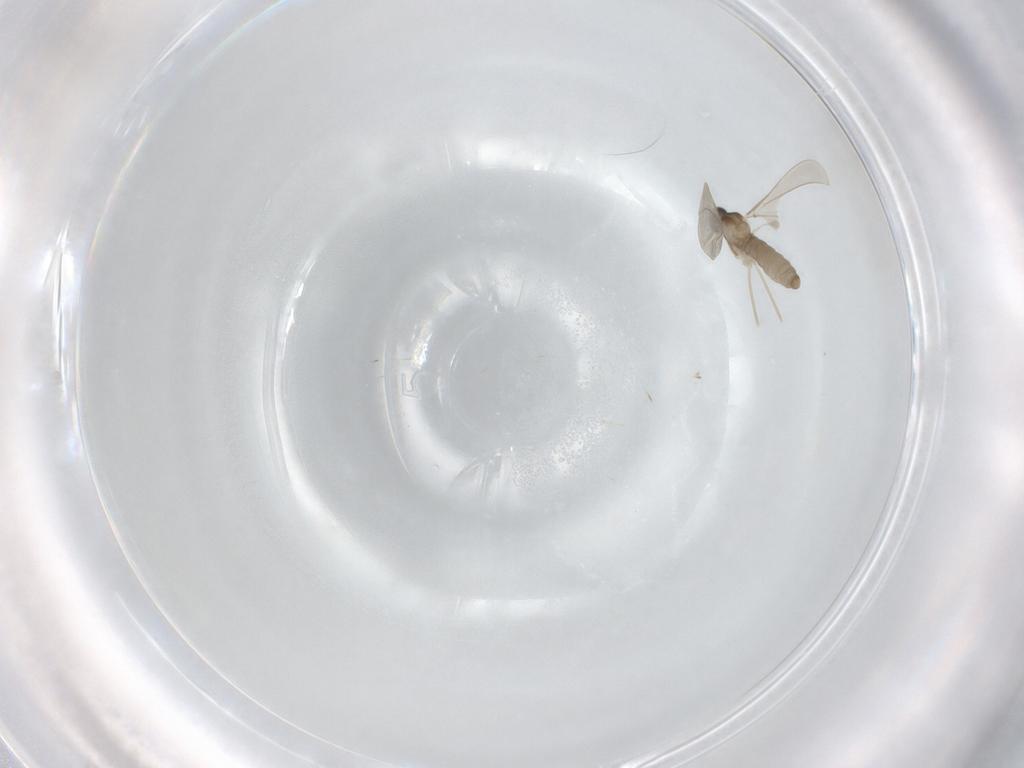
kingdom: Animalia
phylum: Arthropoda
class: Insecta
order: Diptera
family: Cecidomyiidae
